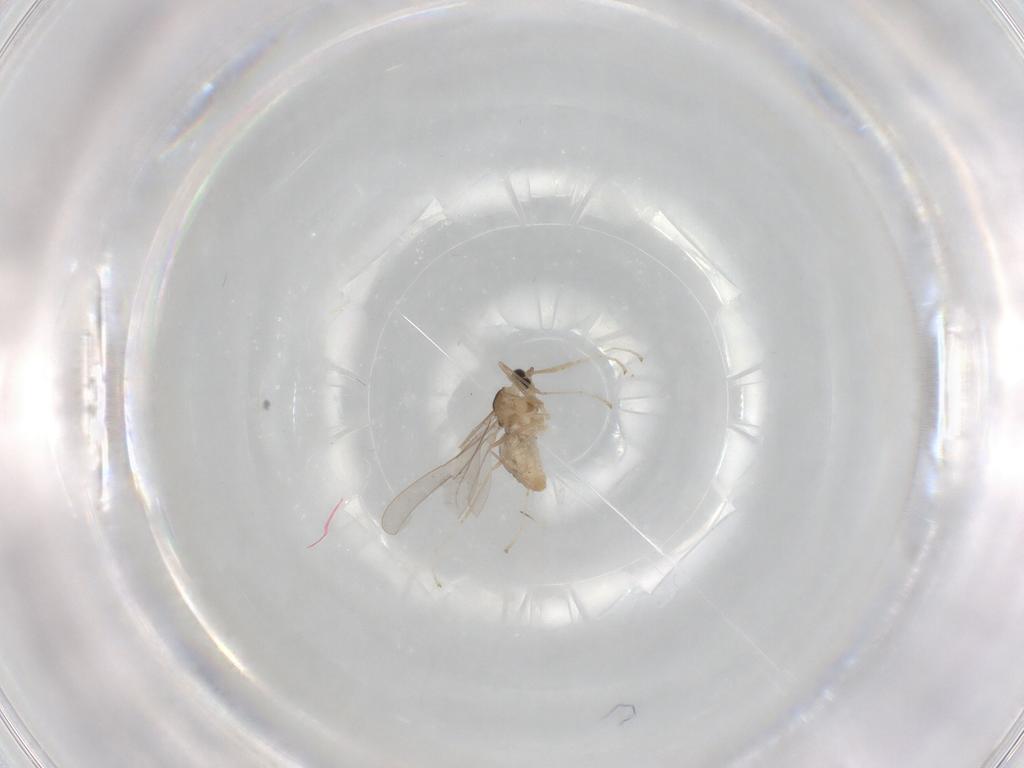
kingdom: Animalia
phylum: Arthropoda
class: Insecta
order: Diptera
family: Cecidomyiidae
